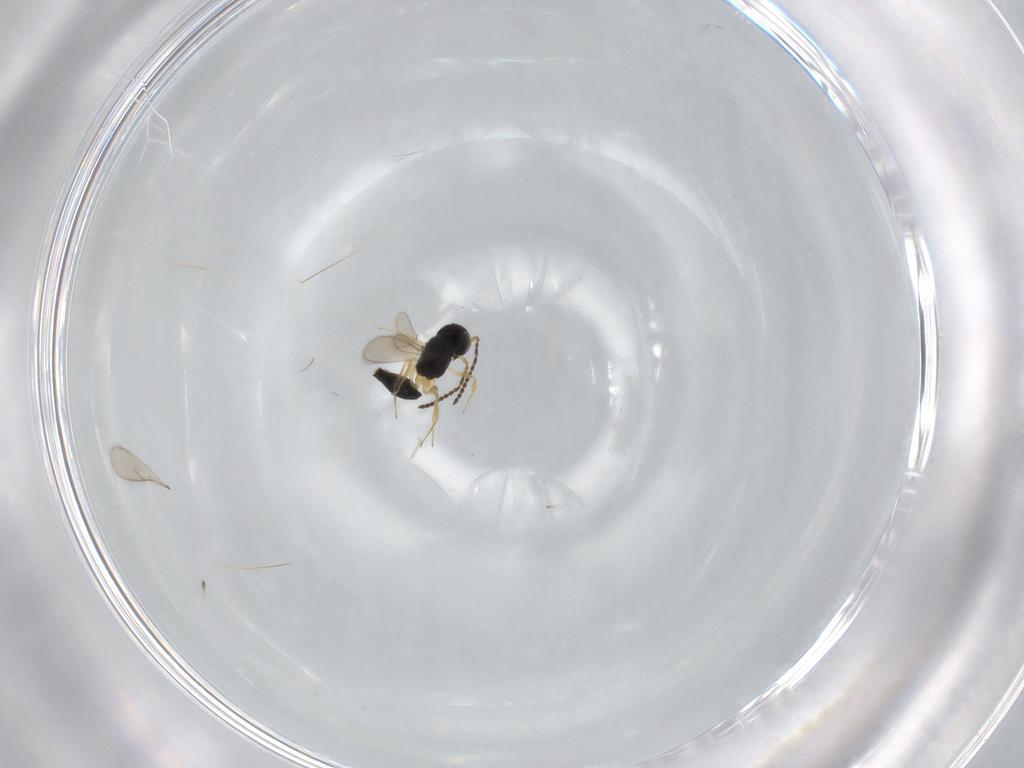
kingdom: Animalia
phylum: Arthropoda
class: Insecta
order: Hymenoptera
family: Scelionidae
